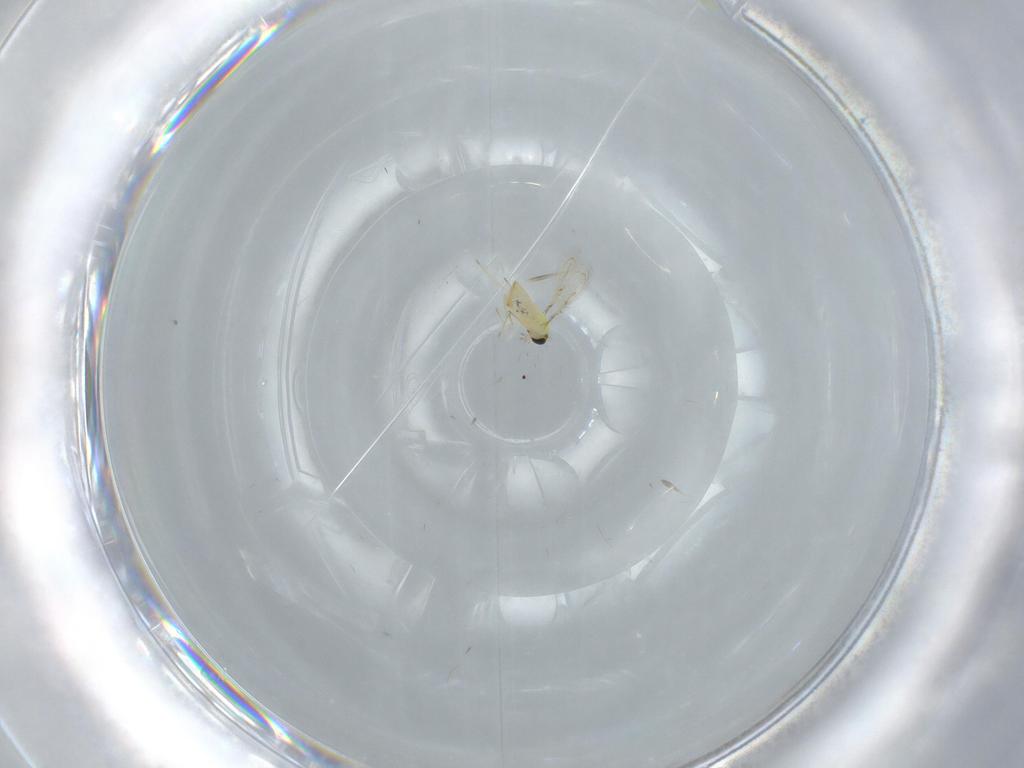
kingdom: Animalia
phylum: Arthropoda
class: Insecta
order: Hymenoptera
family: Trichogrammatidae
